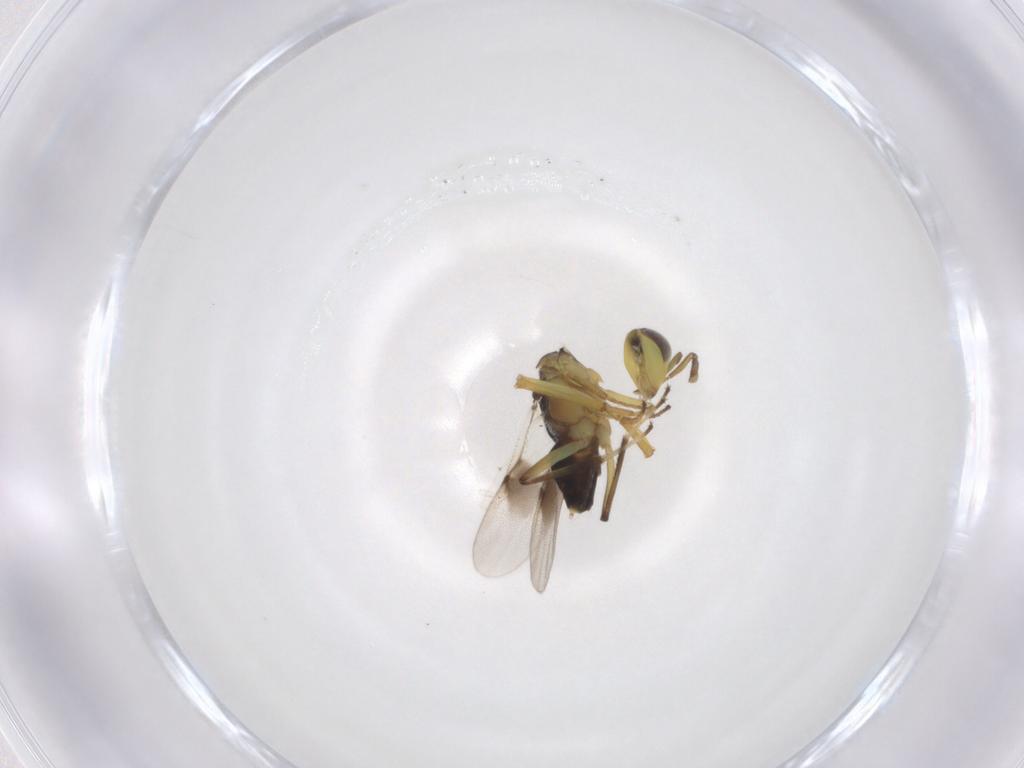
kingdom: Animalia
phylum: Arthropoda
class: Insecta
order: Hymenoptera
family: Encyrtidae
